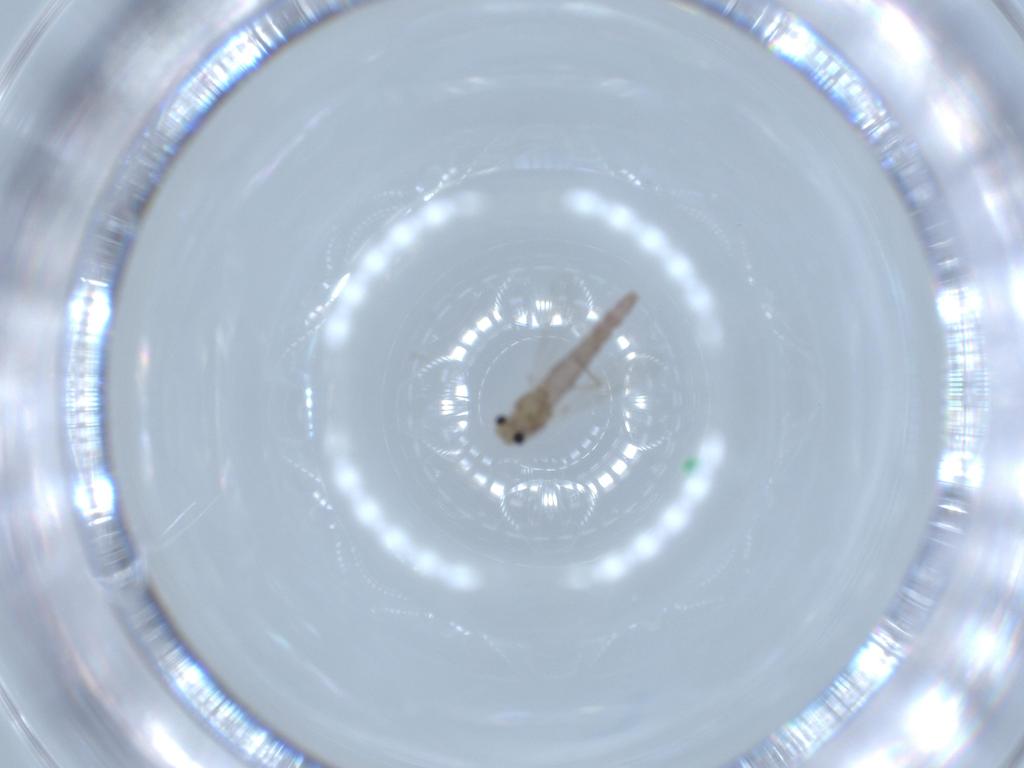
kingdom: Animalia
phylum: Arthropoda
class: Insecta
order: Diptera
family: Chironomidae
